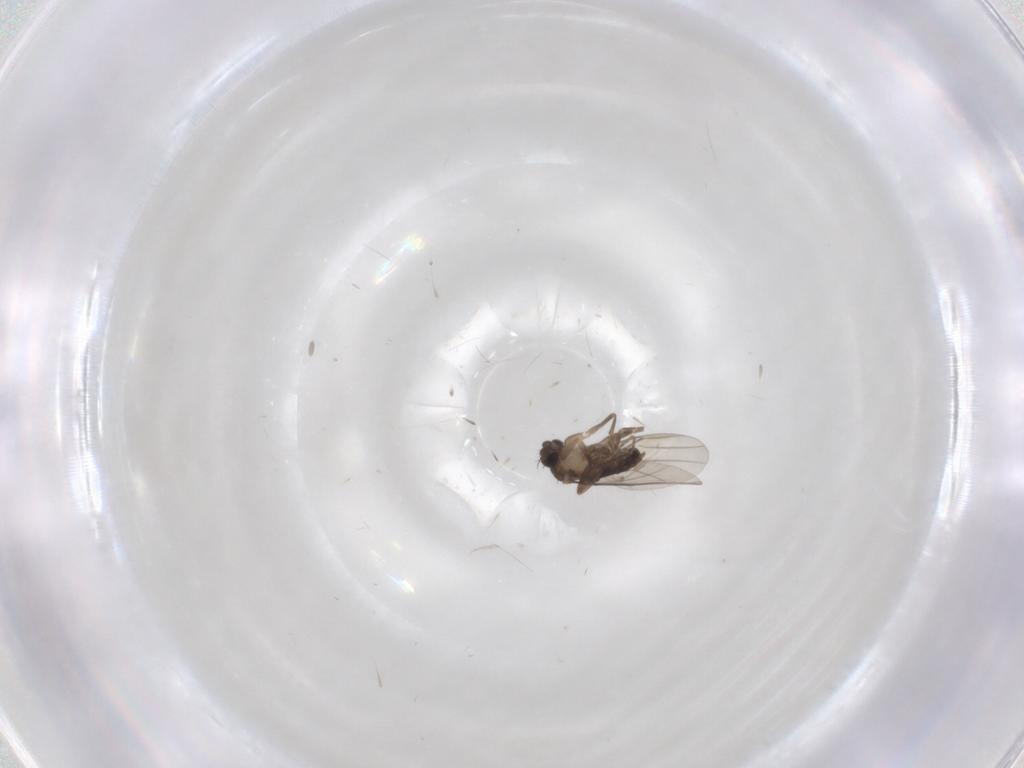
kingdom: Animalia
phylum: Arthropoda
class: Insecta
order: Diptera
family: Phoridae
